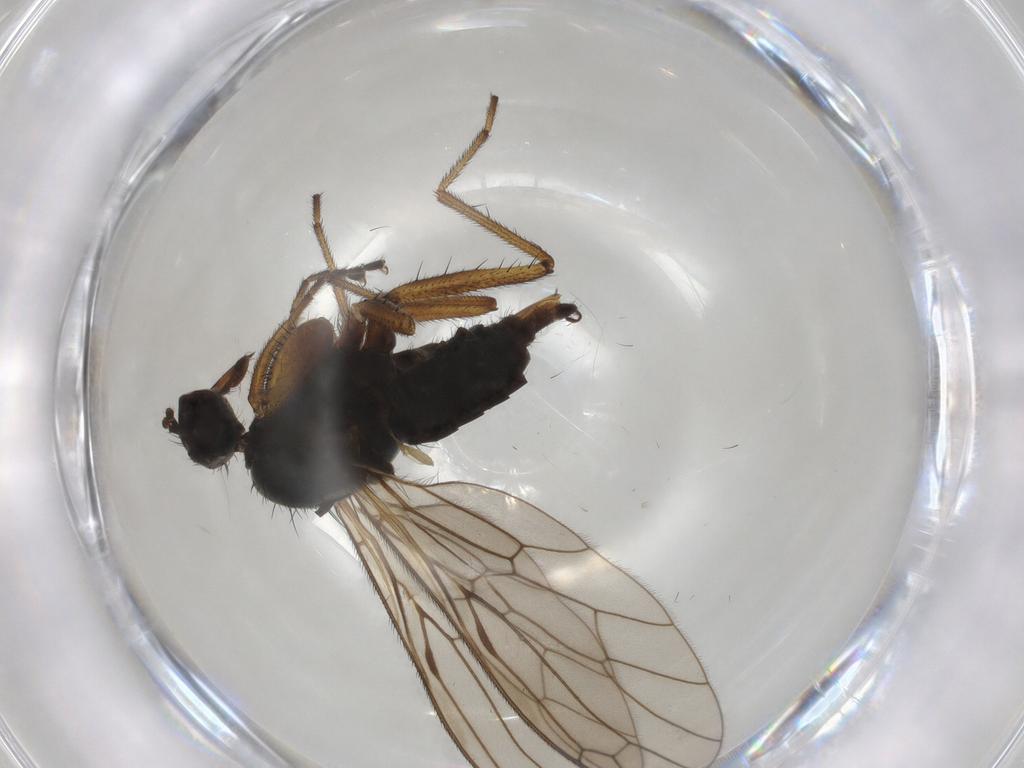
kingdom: Animalia
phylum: Arthropoda
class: Insecta
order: Diptera
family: Empididae
